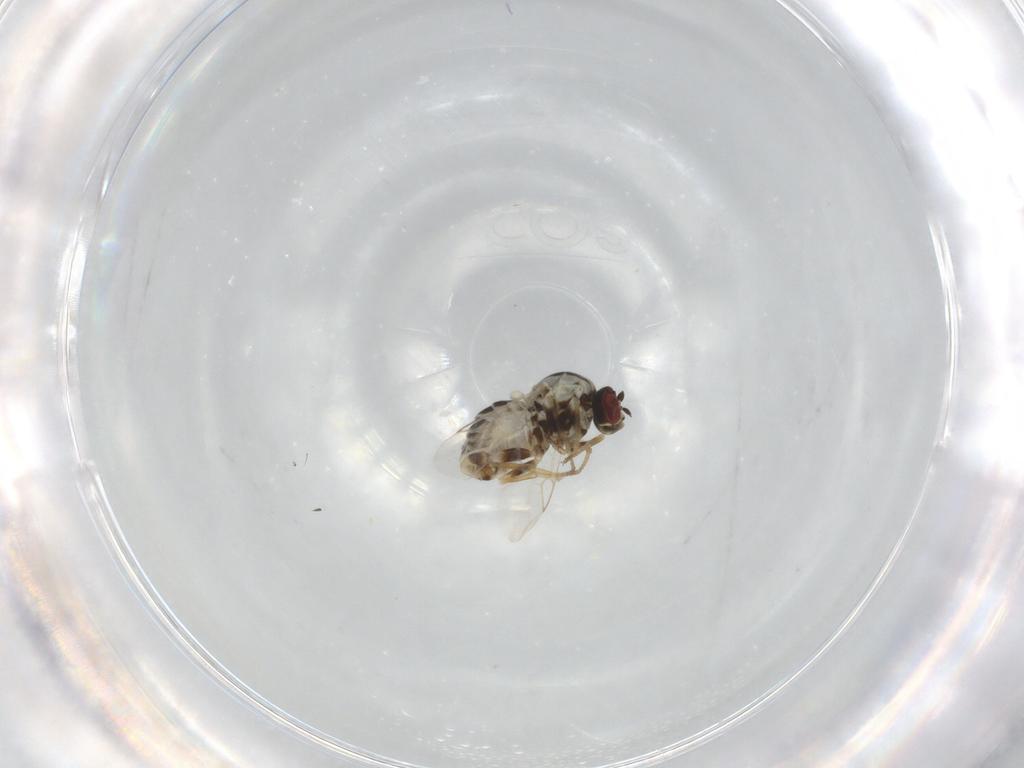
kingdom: Animalia
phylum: Arthropoda
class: Insecta
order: Diptera
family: Bombyliidae
